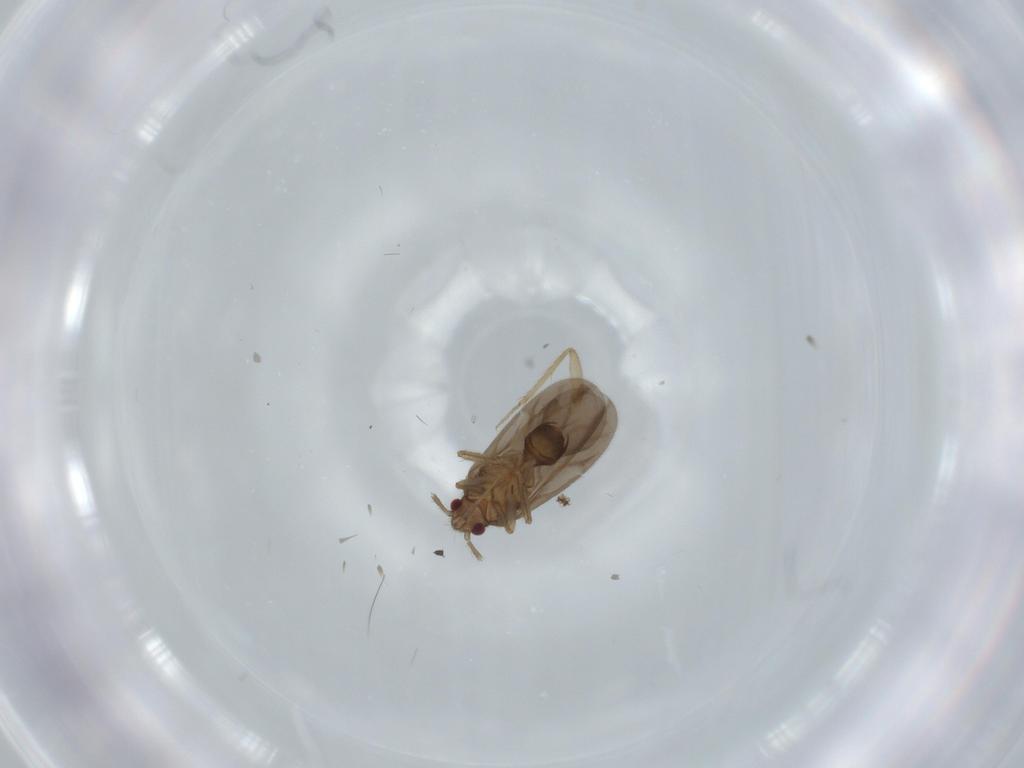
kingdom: Animalia
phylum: Arthropoda
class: Insecta
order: Hemiptera
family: Ceratocombidae
